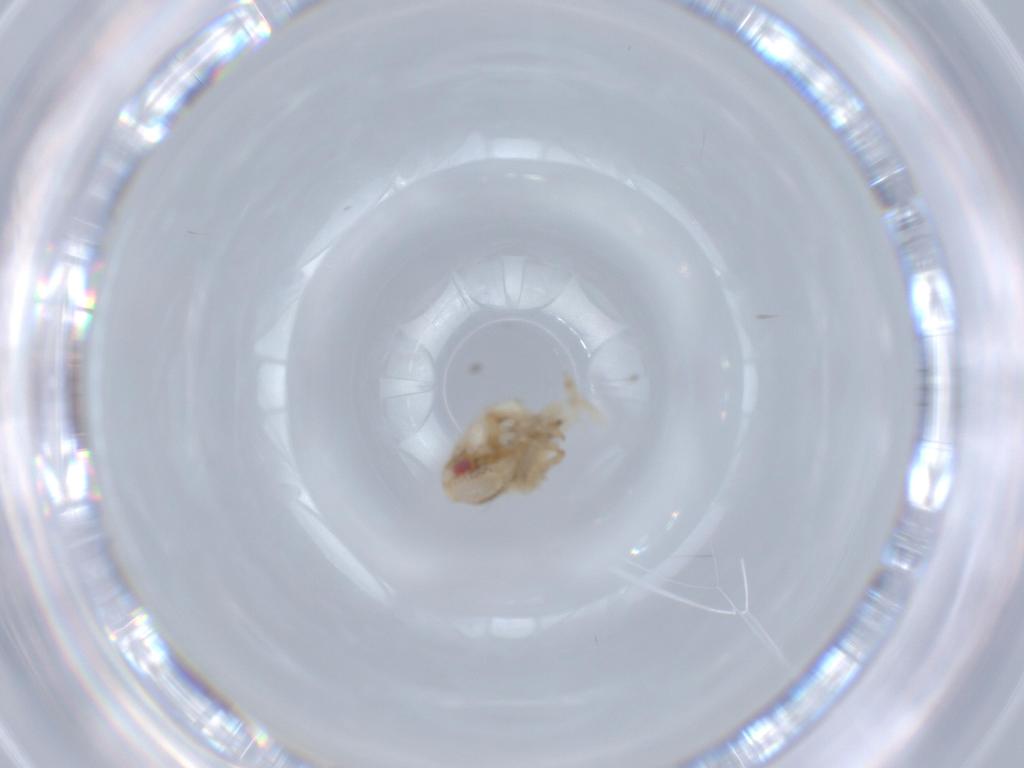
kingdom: Animalia
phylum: Arthropoda
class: Insecta
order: Hemiptera
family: Acanaloniidae
